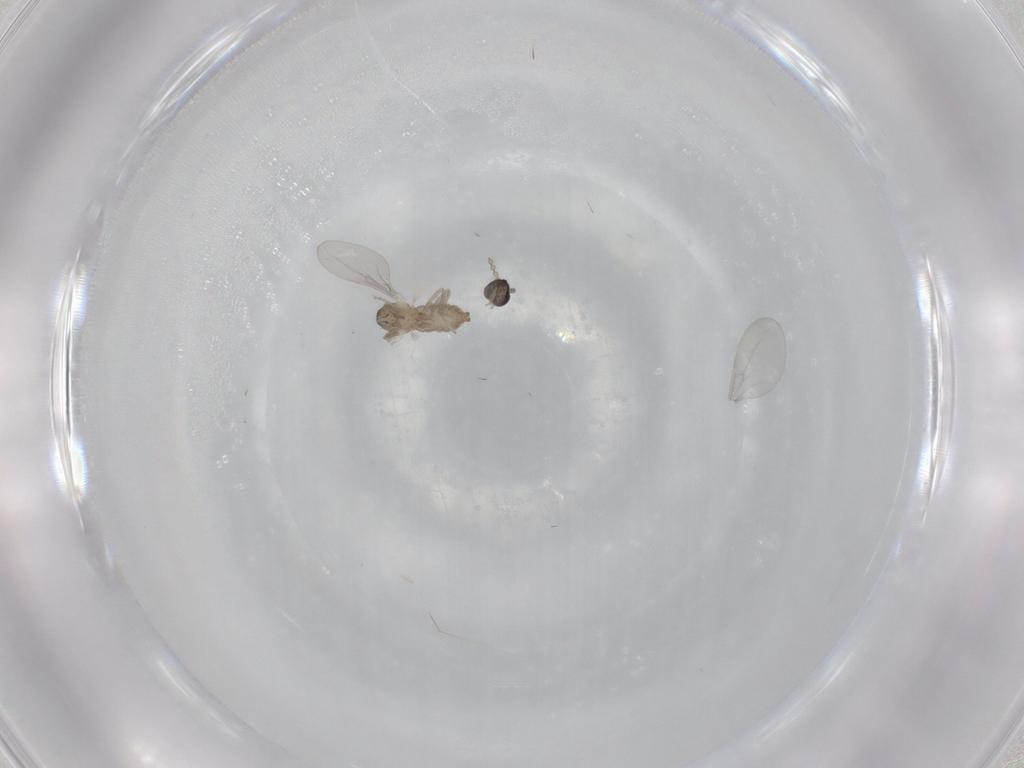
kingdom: Animalia
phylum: Arthropoda
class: Insecta
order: Diptera
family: Cecidomyiidae
